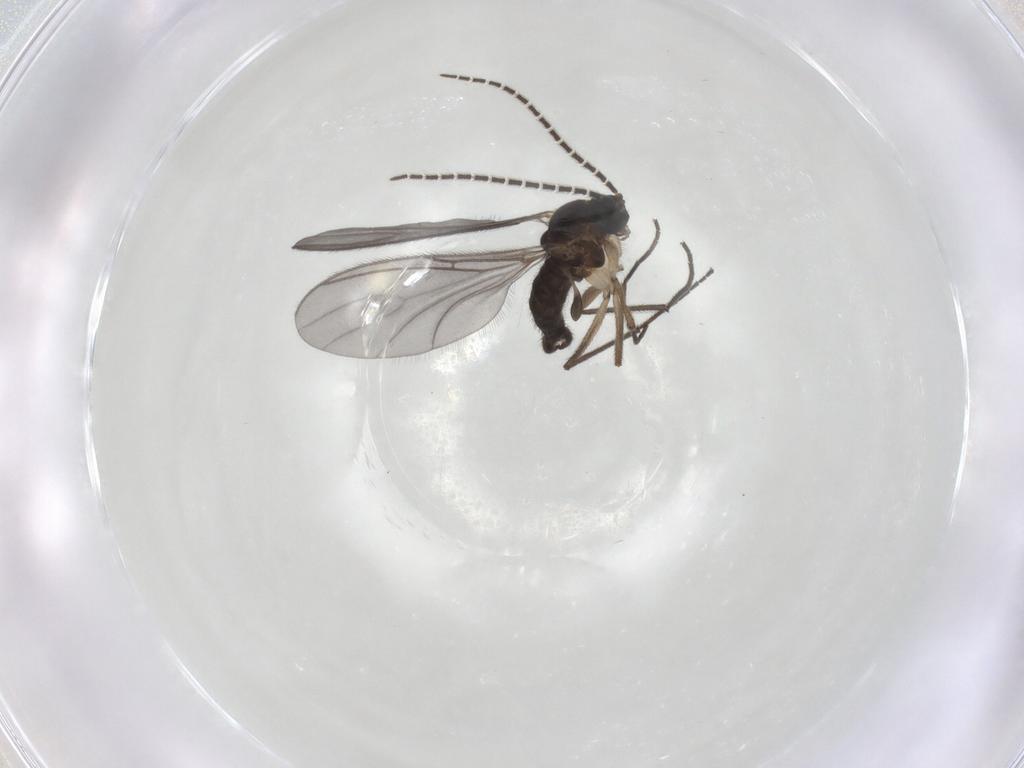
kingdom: Animalia
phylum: Arthropoda
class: Insecta
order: Diptera
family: Sciaridae
